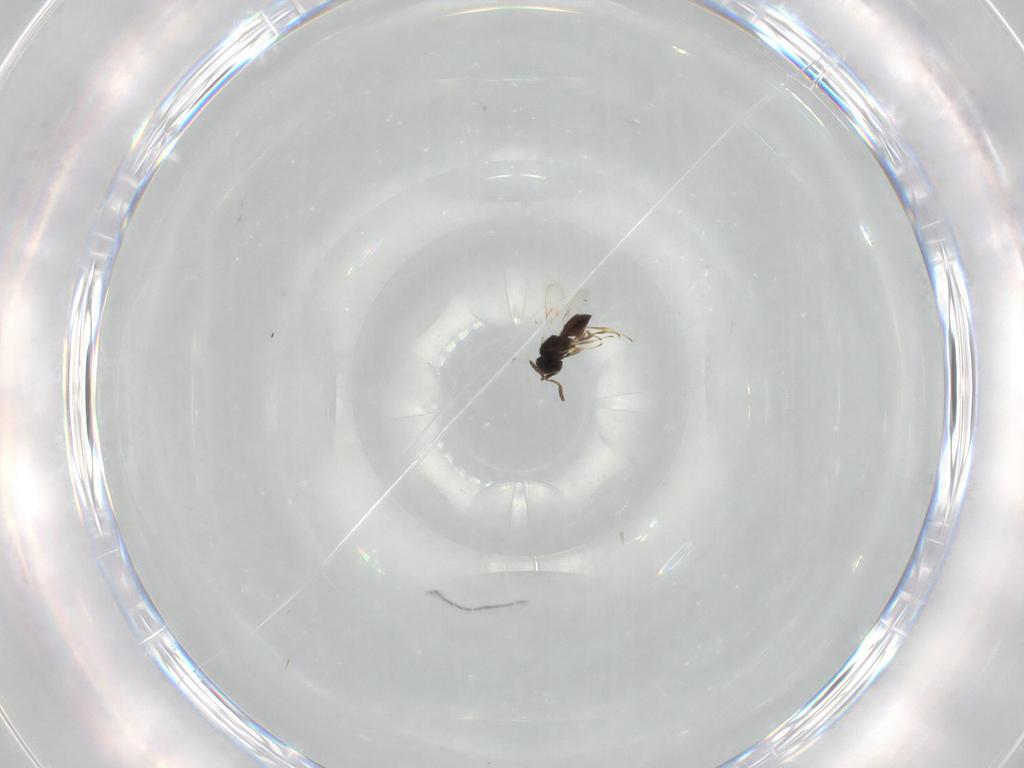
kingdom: Animalia
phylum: Arthropoda
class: Insecta
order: Hymenoptera
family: Scelionidae
